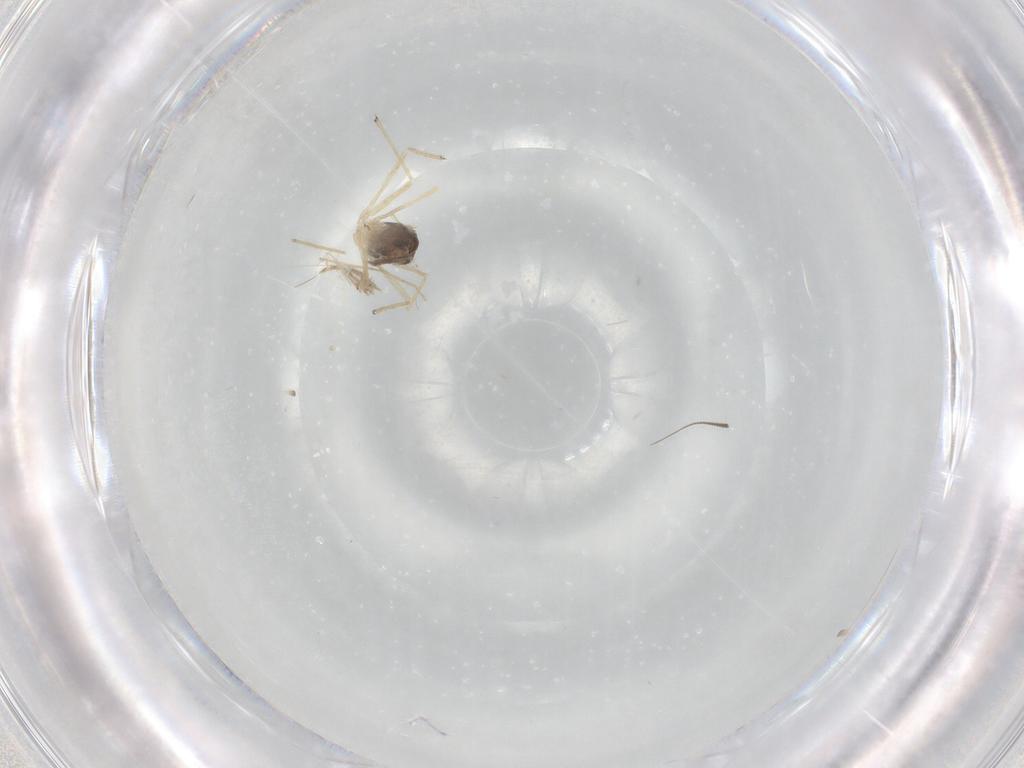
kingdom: Animalia
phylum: Arthropoda
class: Insecta
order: Diptera
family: Chironomidae
